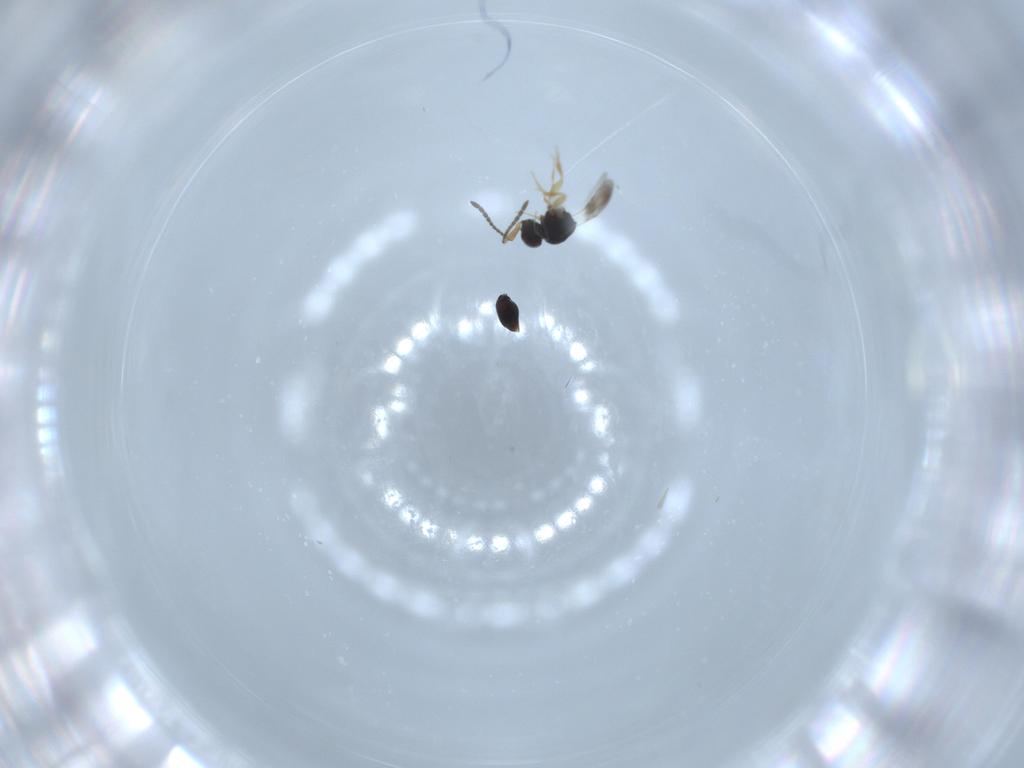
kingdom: Animalia
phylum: Arthropoda
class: Insecta
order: Hymenoptera
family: Ceraphronidae
